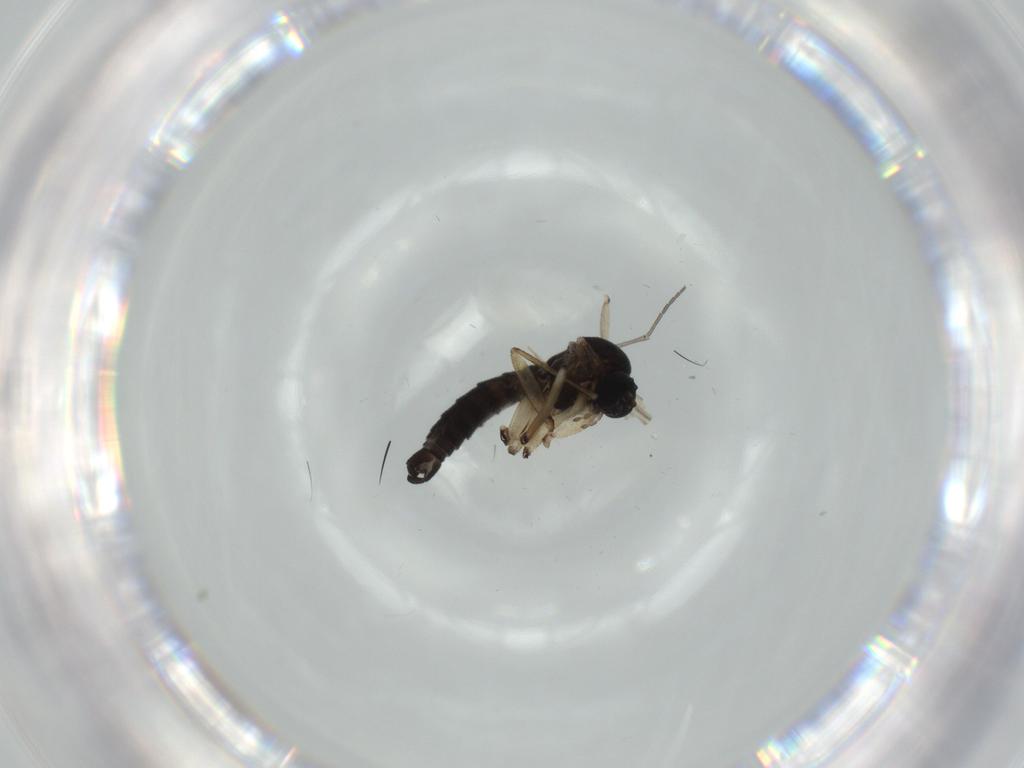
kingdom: Animalia
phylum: Arthropoda
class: Insecta
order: Diptera
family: Sciaridae
